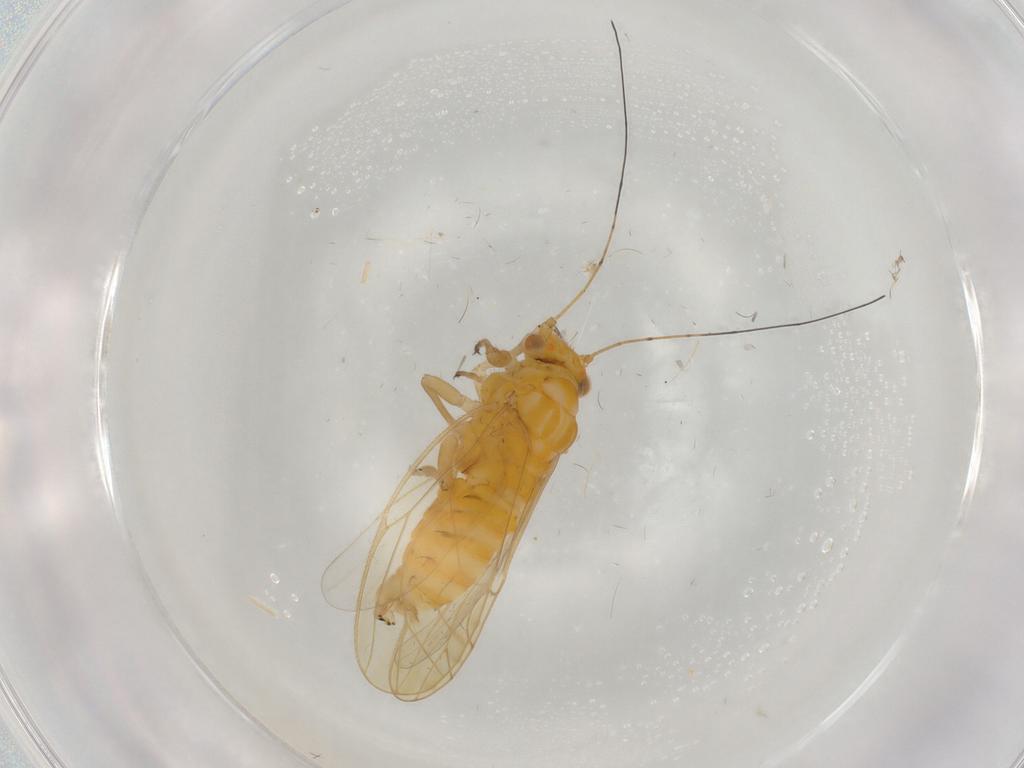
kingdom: Animalia
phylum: Arthropoda
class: Insecta
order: Hemiptera
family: Psyllidae
